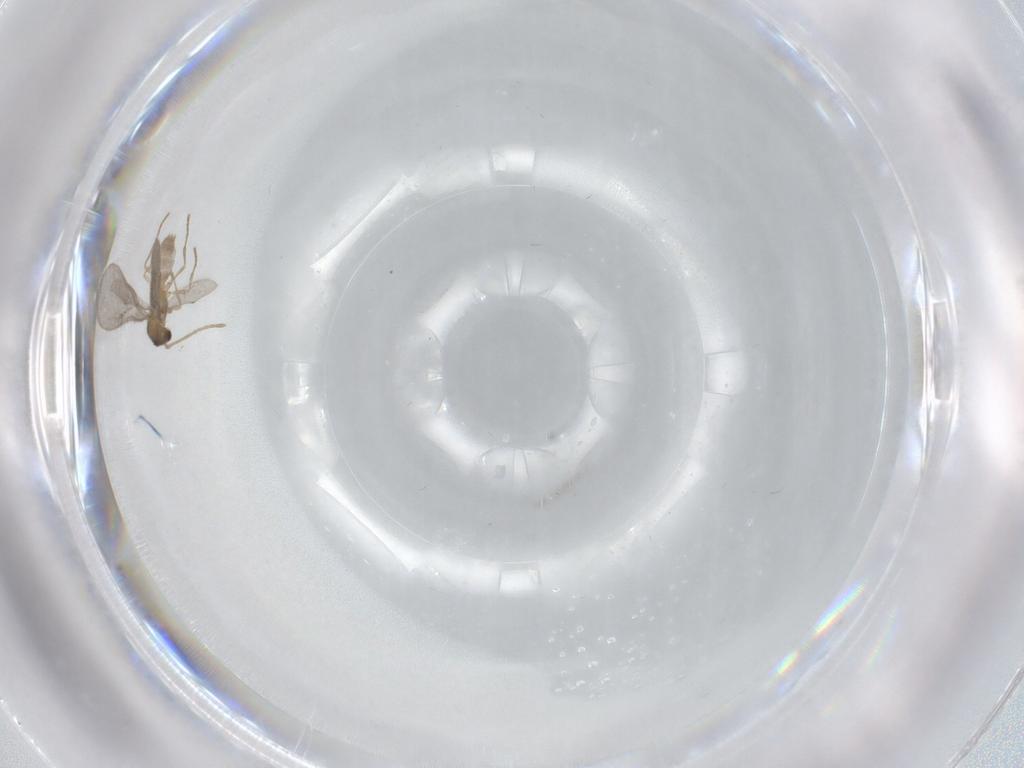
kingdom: Animalia
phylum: Arthropoda
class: Insecta
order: Hymenoptera
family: Formicidae
